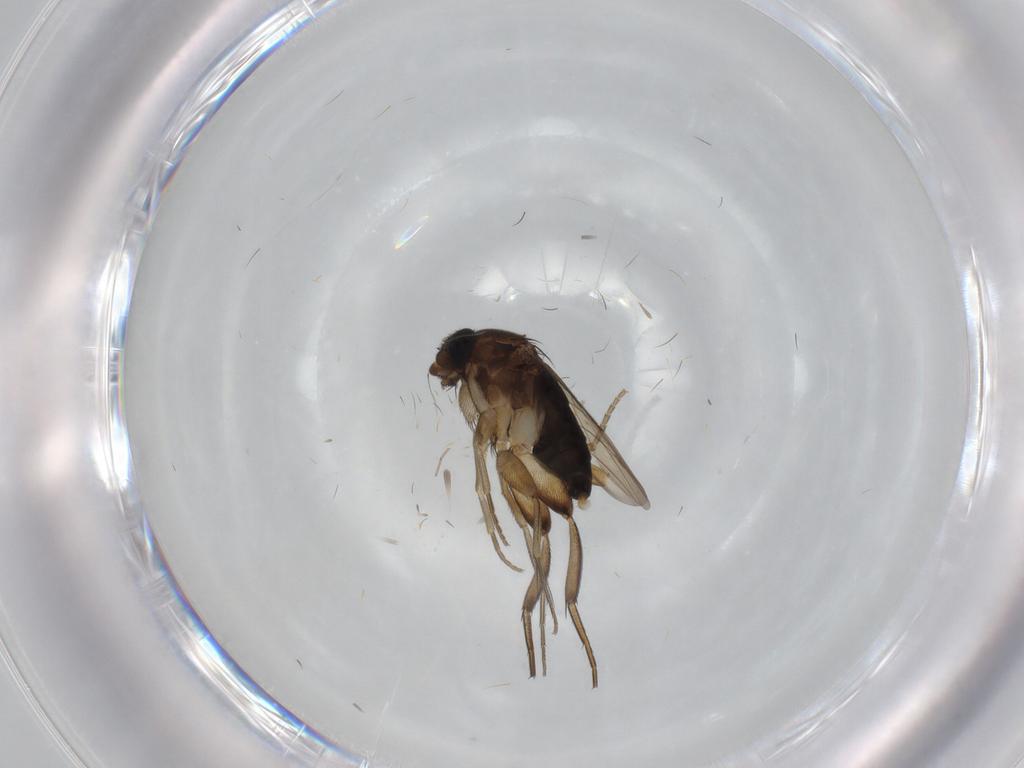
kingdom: Animalia
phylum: Arthropoda
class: Insecta
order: Diptera
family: Phoridae
